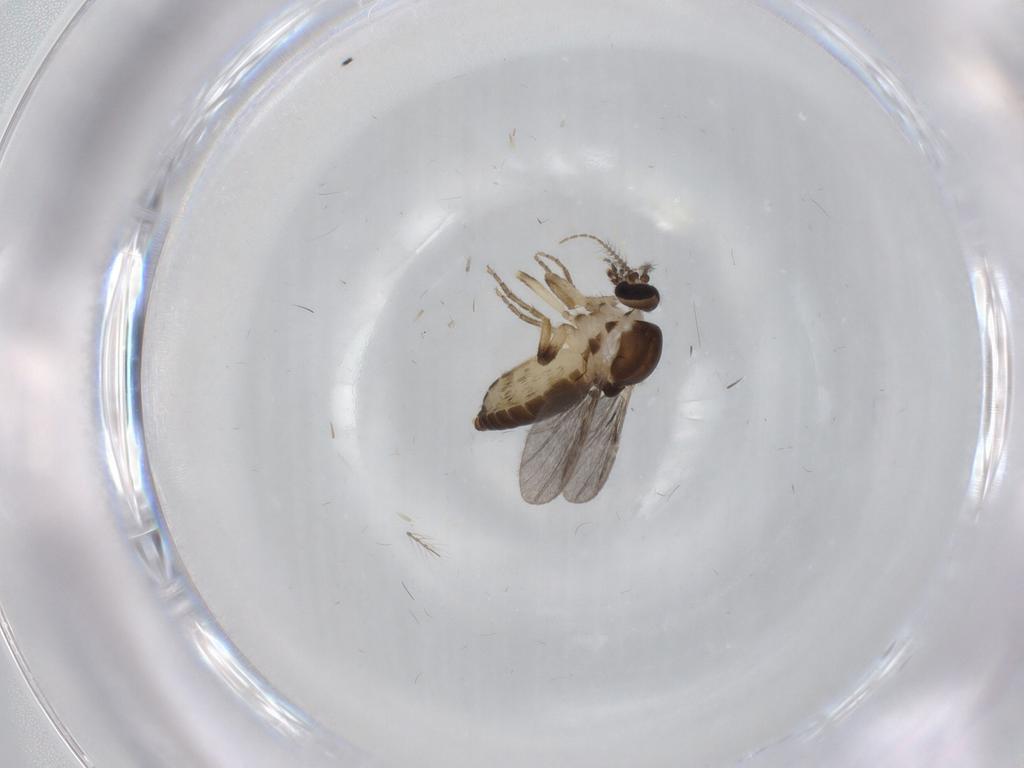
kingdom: Animalia
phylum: Arthropoda
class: Insecta
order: Diptera
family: Ceratopogonidae
